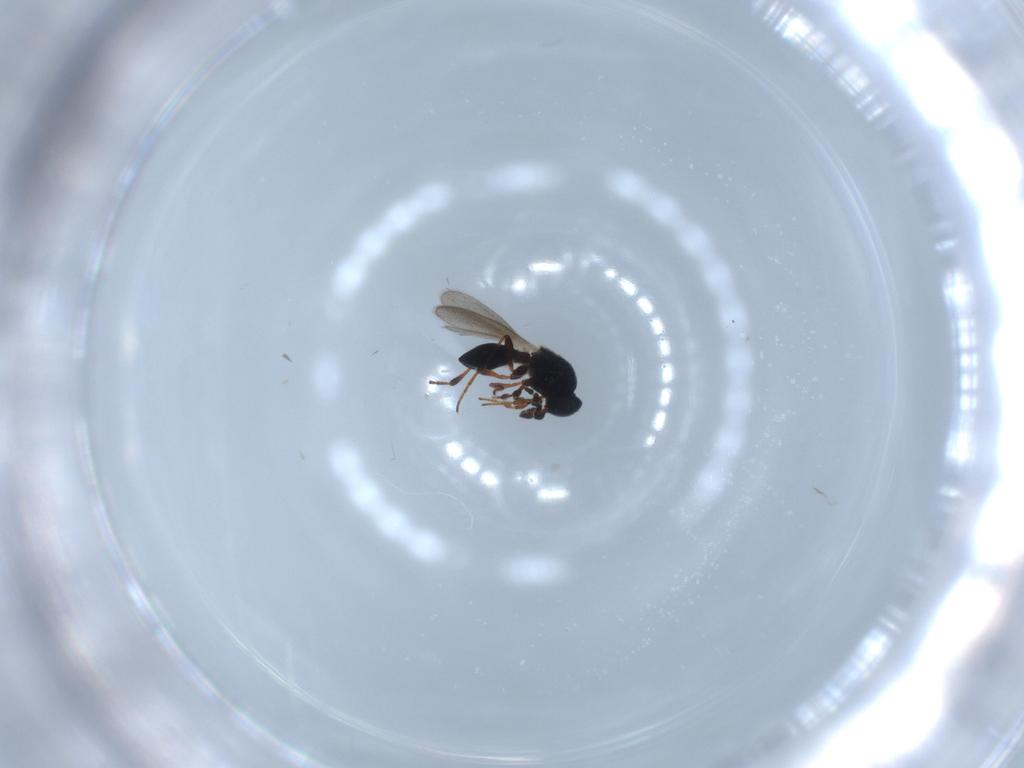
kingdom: Animalia
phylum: Arthropoda
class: Insecta
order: Hymenoptera
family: Platygastridae
